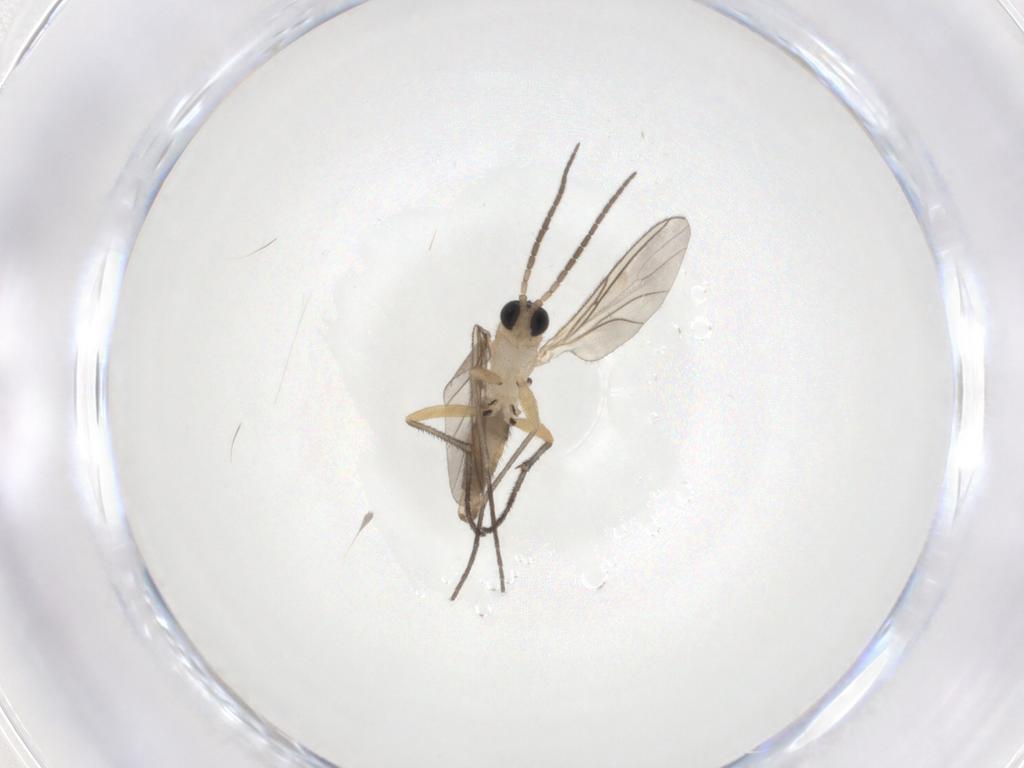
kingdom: Animalia
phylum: Arthropoda
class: Insecta
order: Diptera
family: Sciaridae
